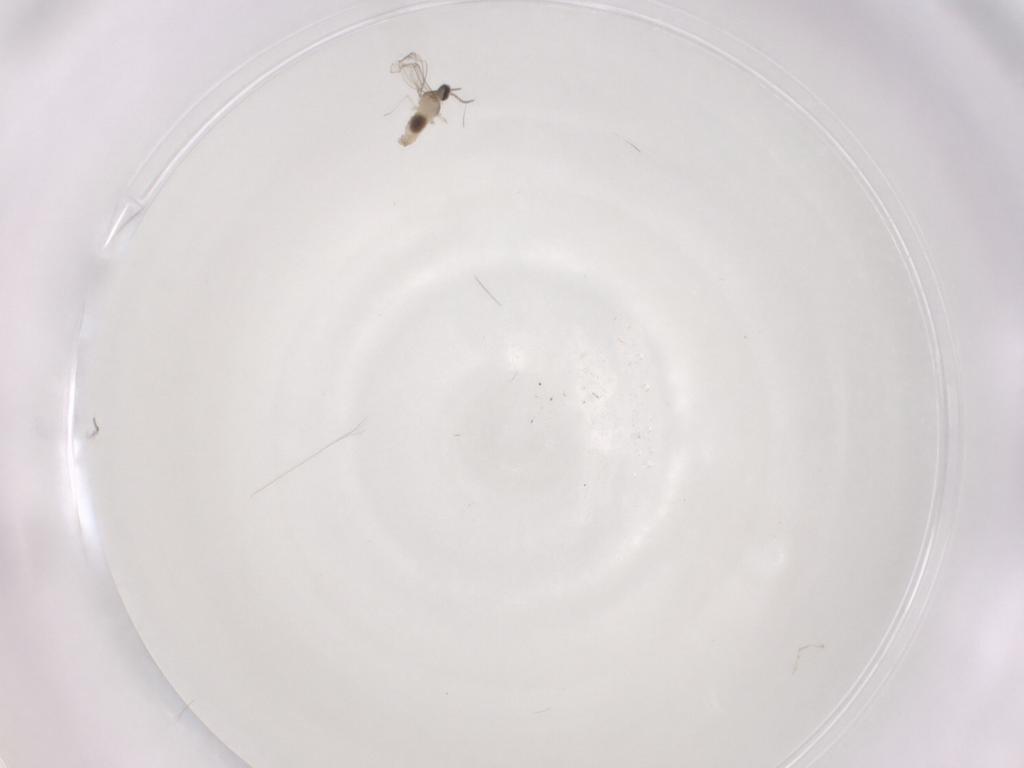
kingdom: Animalia
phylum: Arthropoda
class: Insecta
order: Diptera
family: Cecidomyiidae
